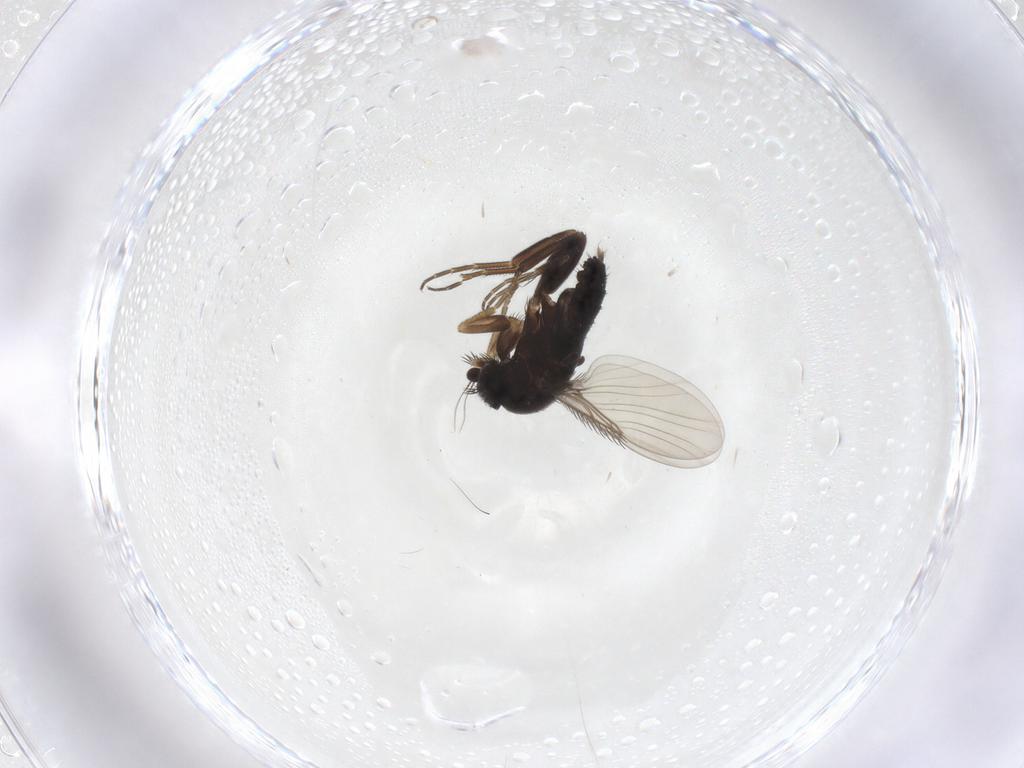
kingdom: Animalia
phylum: Arthropoda
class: Insecta
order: Diptera
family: Phoridae
